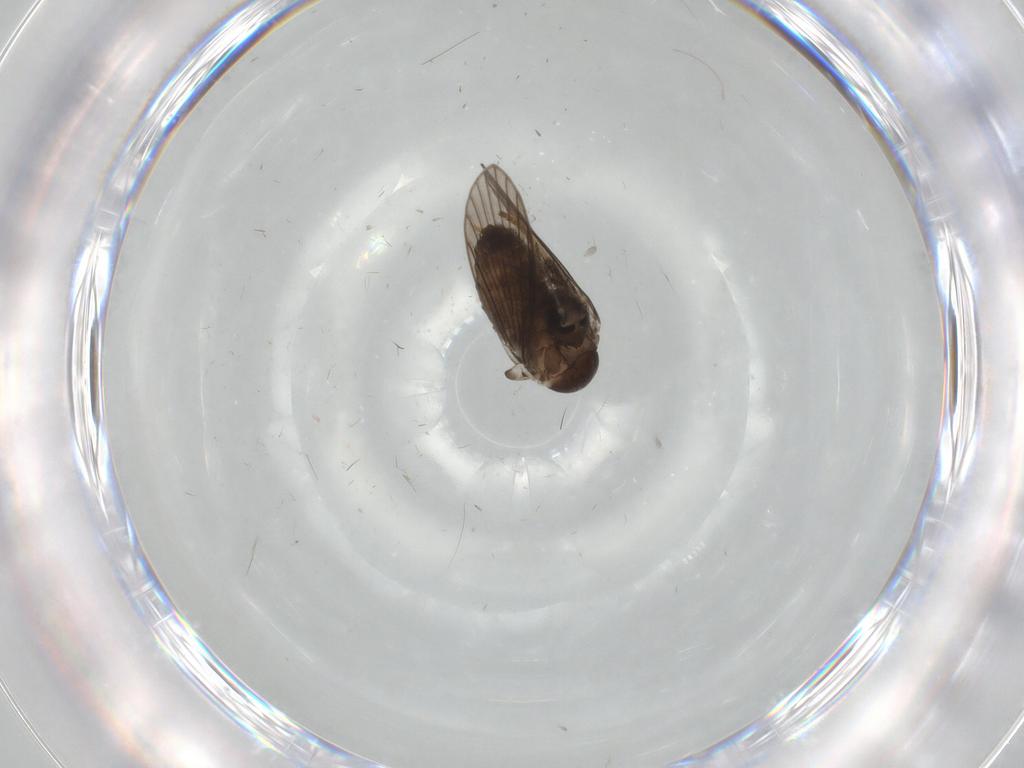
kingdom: Animalia
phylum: Arthropoda
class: Insecta
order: Diptera
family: Psychodidae
